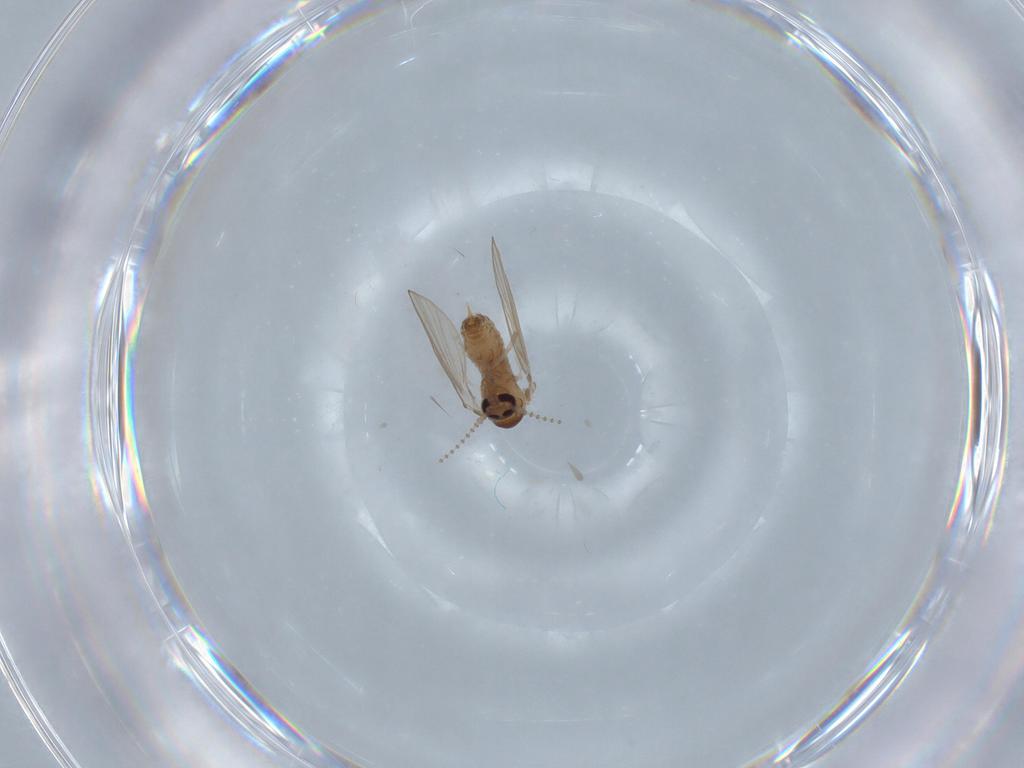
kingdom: Animalia
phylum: Arthropoda
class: Insecta
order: Diptera
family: Psychodidae
